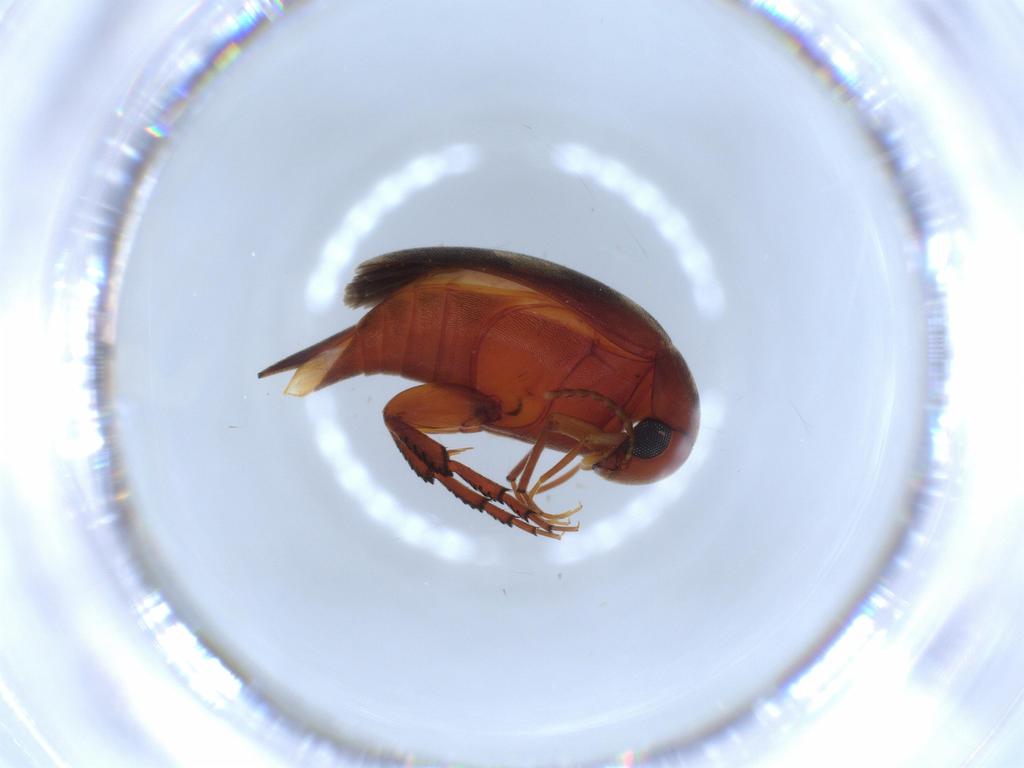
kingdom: Animalia
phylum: Arthropoda
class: Insecta
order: Coleoptera
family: Mordellidae
